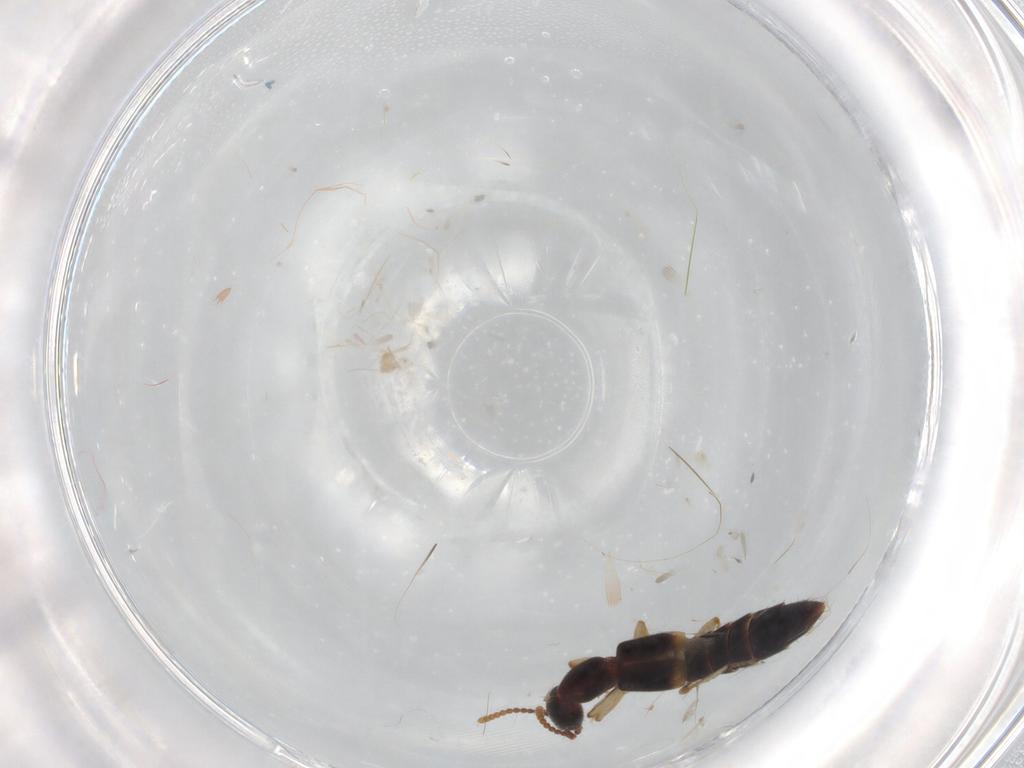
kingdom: Animalia
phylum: Arthropoda
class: Insecta
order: Coleoptera
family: Staphylinidae
